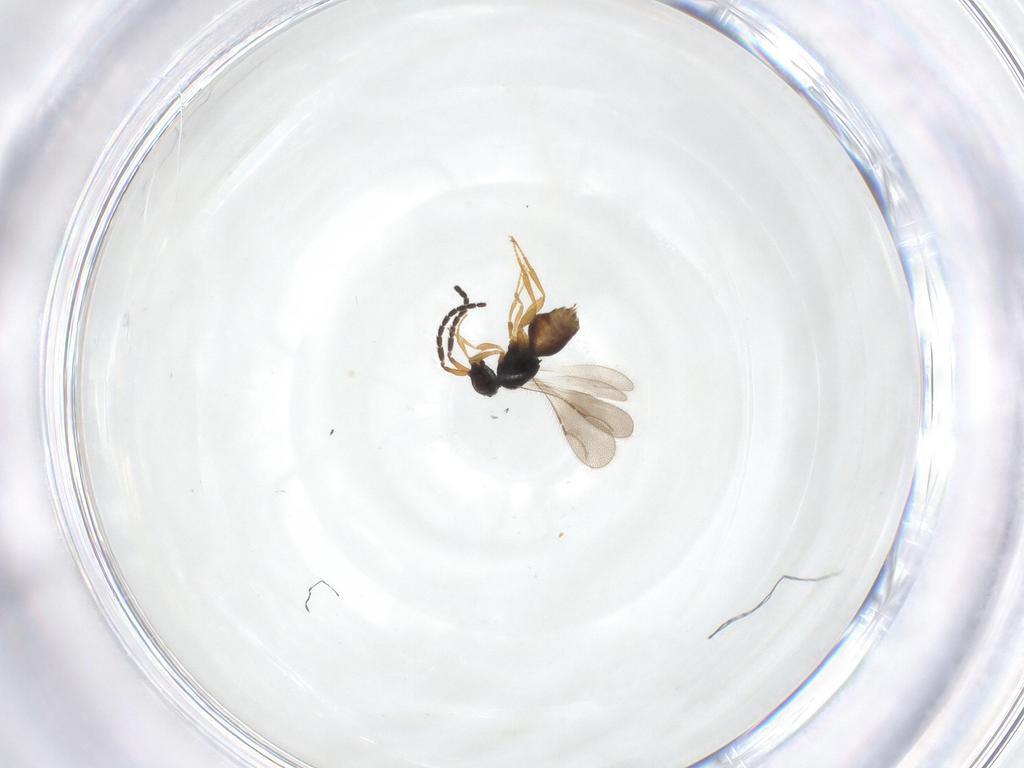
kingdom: Animalia
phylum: Arthropoda
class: Insecta
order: Hymenoptera
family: Ceraphronidae
